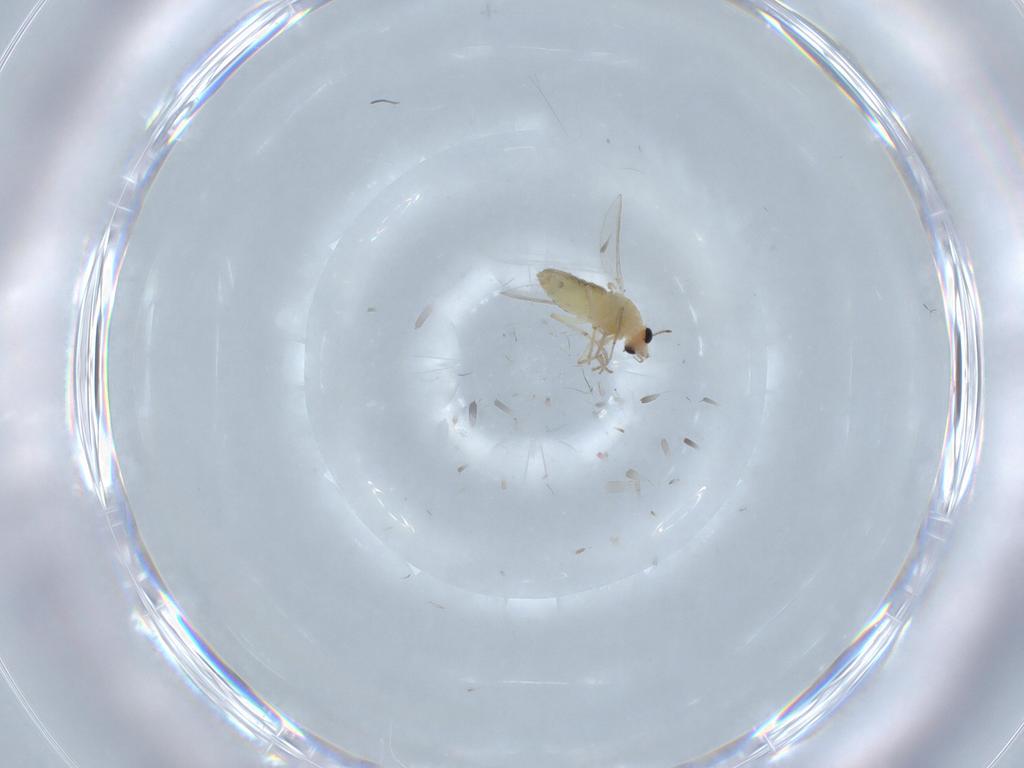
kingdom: Animalia
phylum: Arthropoda
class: Insecta
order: Diptera
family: Chironomidae
